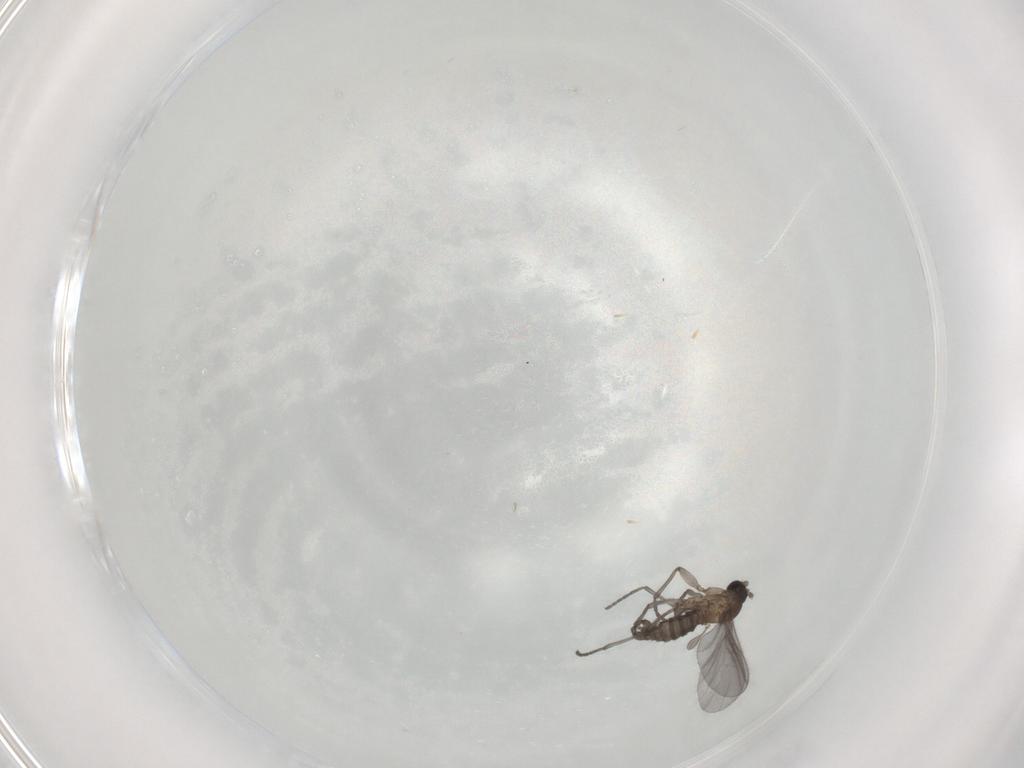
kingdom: Animalia
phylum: Arthropoda
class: Insecta
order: Diptera
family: Sciaridae
